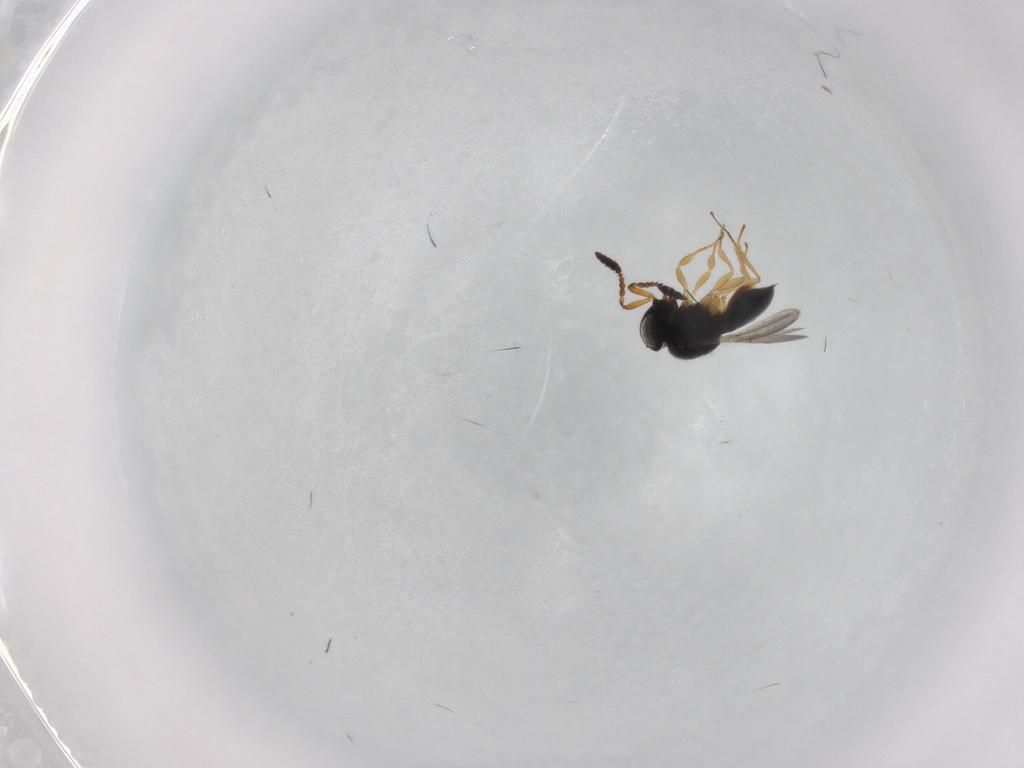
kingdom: Animalia
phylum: Arthropoda
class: Insecta
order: Hymenoptera
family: Scelionidae
